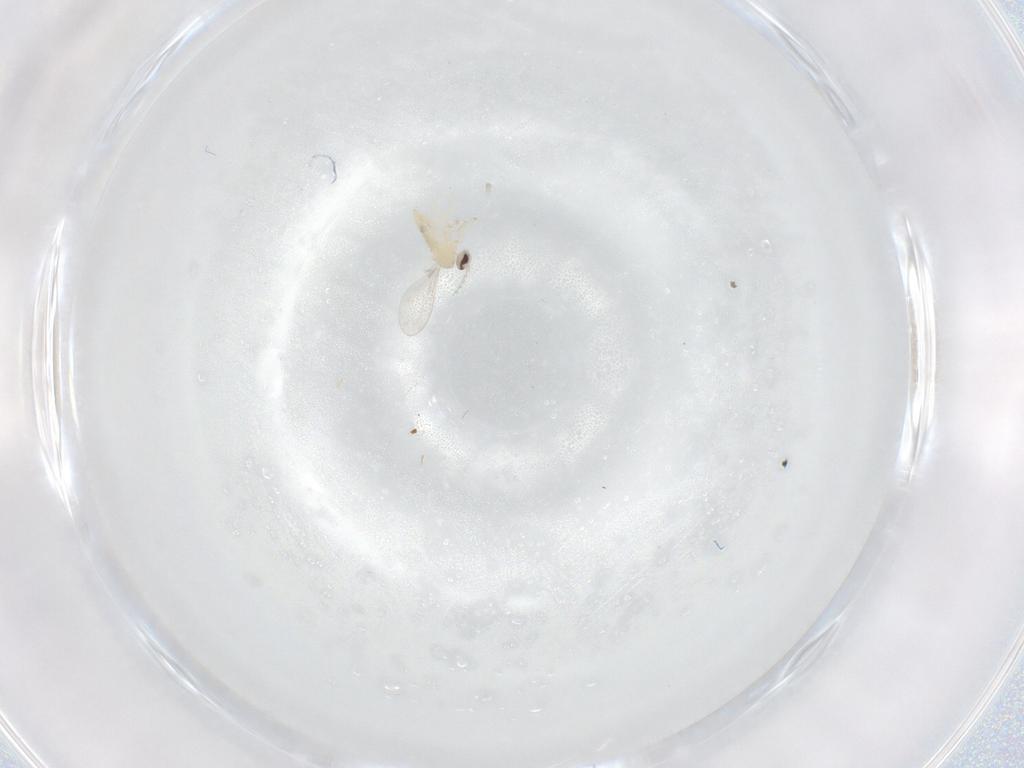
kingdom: Animalia
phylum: Arthropoda
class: Insecta
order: Diptera
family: Cecidomyiidae
